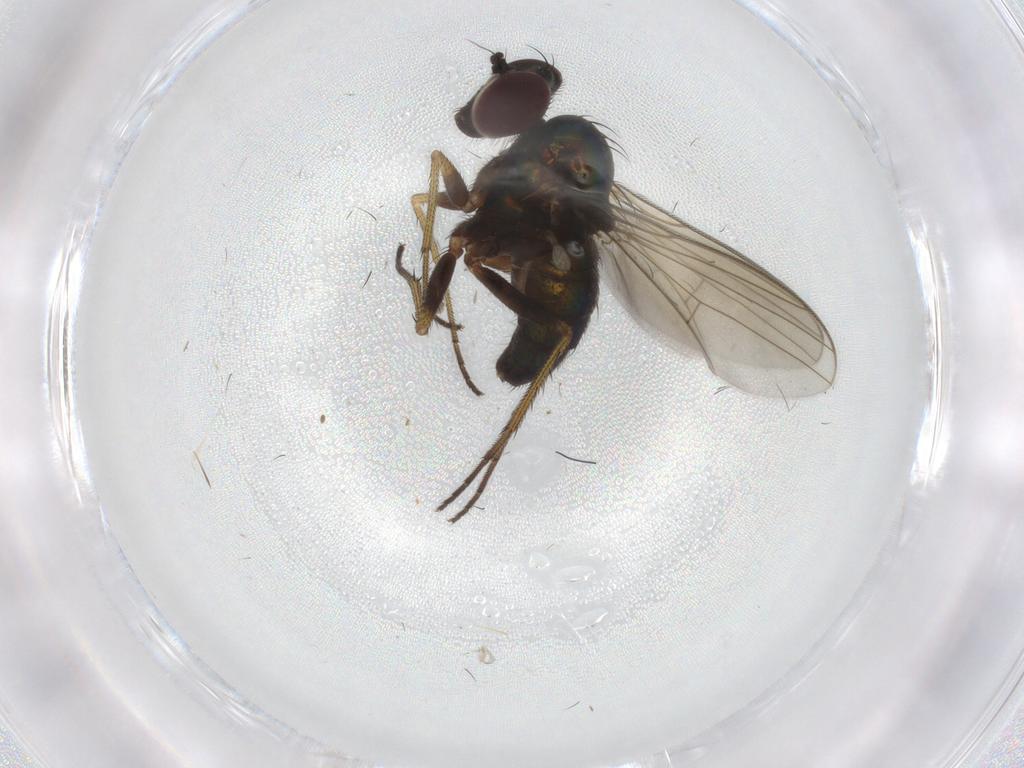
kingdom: Animalia
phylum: Arthropoda
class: Insecta
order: Diptera
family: Dolichopodidae
